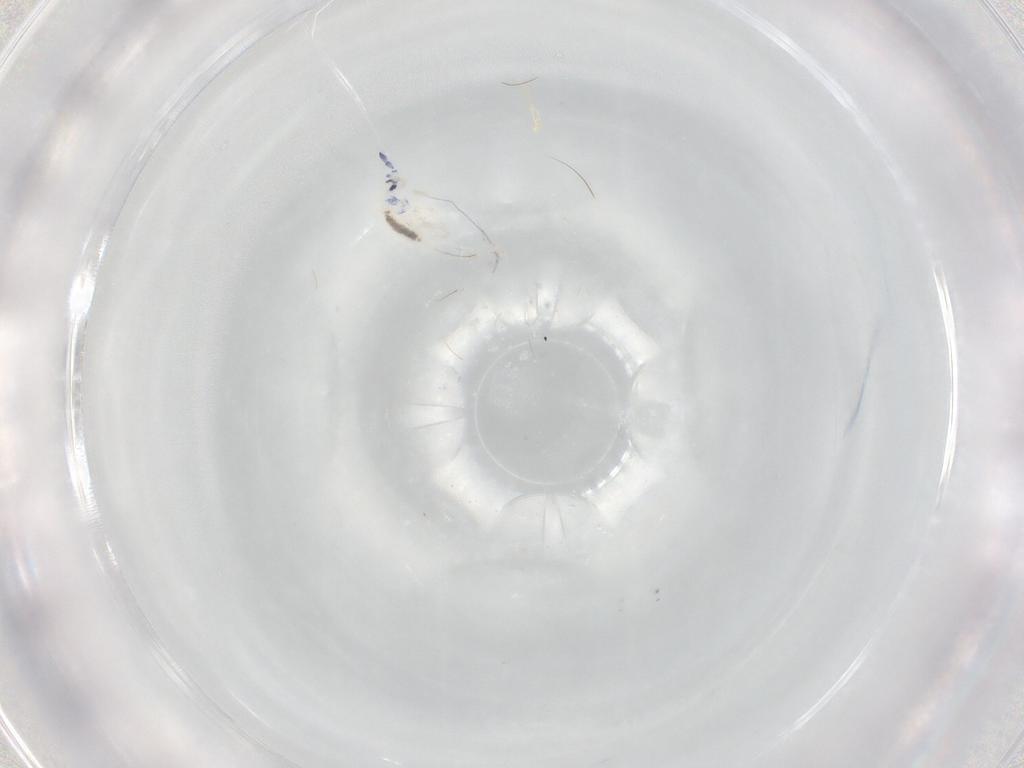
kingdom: Animalia
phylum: Arthropoda
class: Collembola
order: Entomobryomorpha
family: Entomobryidae
